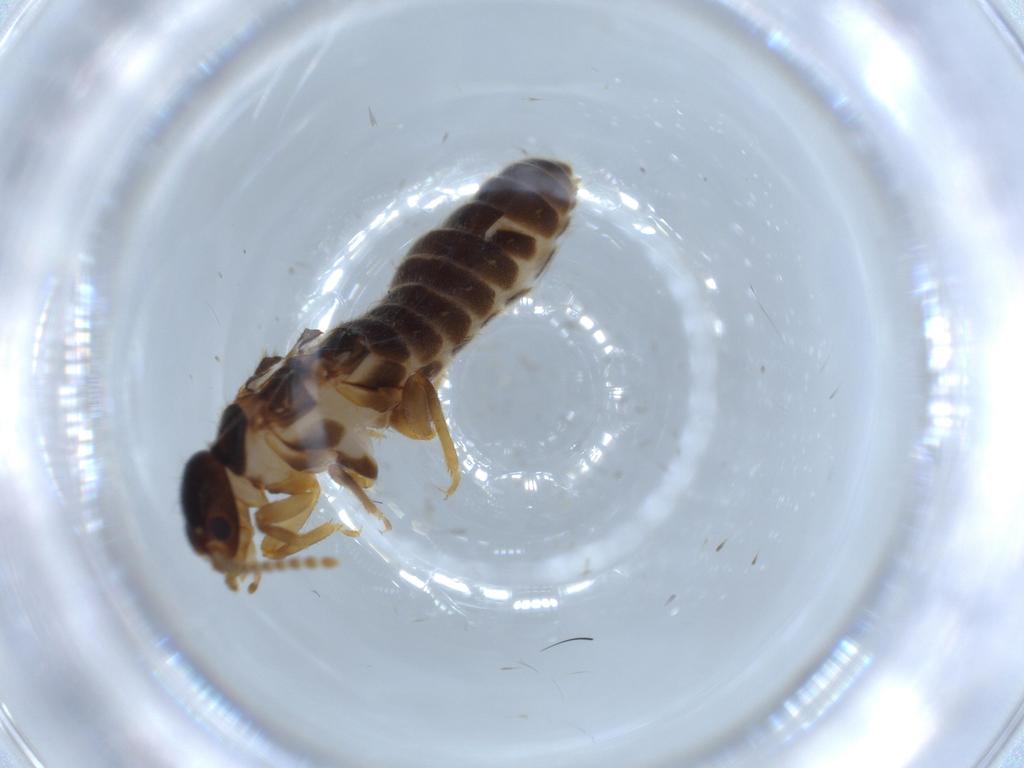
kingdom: Animalia
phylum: Arthropoda
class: Insecta
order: Blattodea
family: Termitidae
